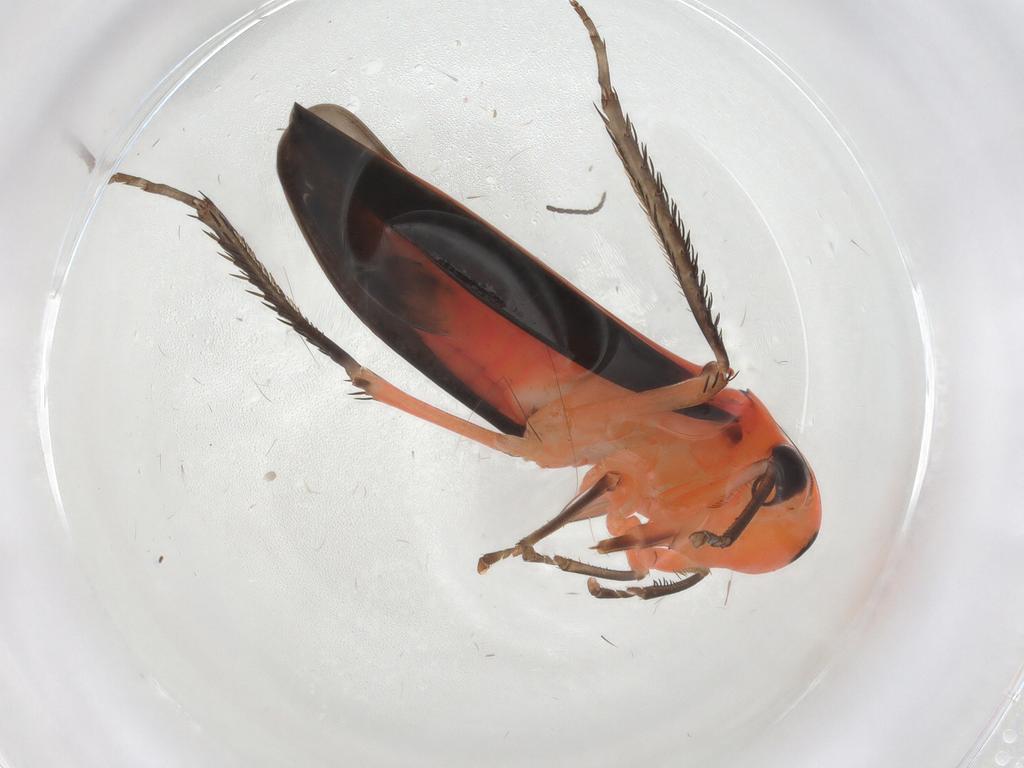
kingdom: Animalia
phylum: Arthropoda
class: Insecta
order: Hemiptera
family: Cicadellidae
